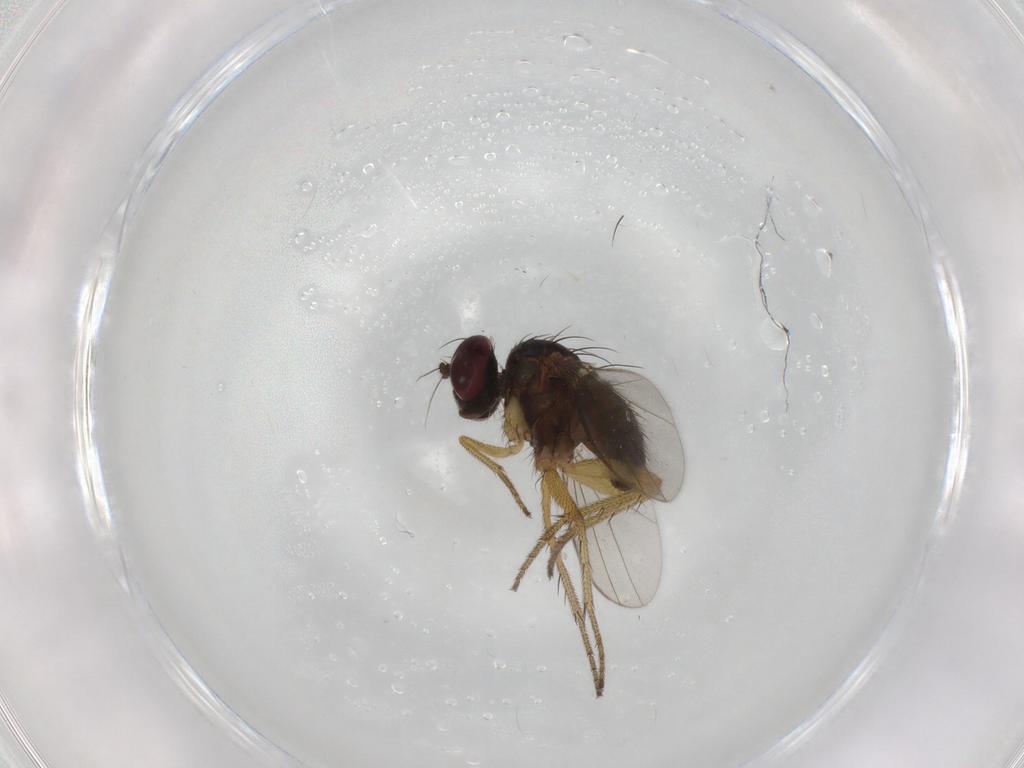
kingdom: Animalia
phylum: Arthropoda
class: Insecta
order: Diptera
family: Dolichopodidae
